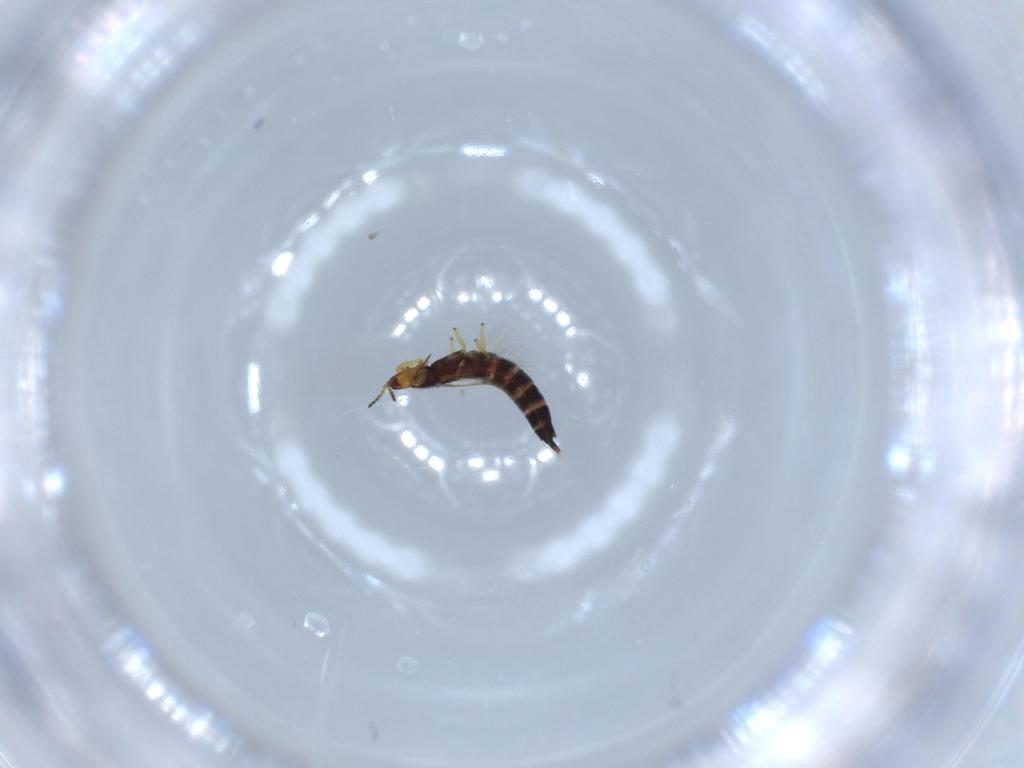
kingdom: Animalia
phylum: Arthropoda
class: Insecta
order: Thysanoptera
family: Phlaeothripidae
